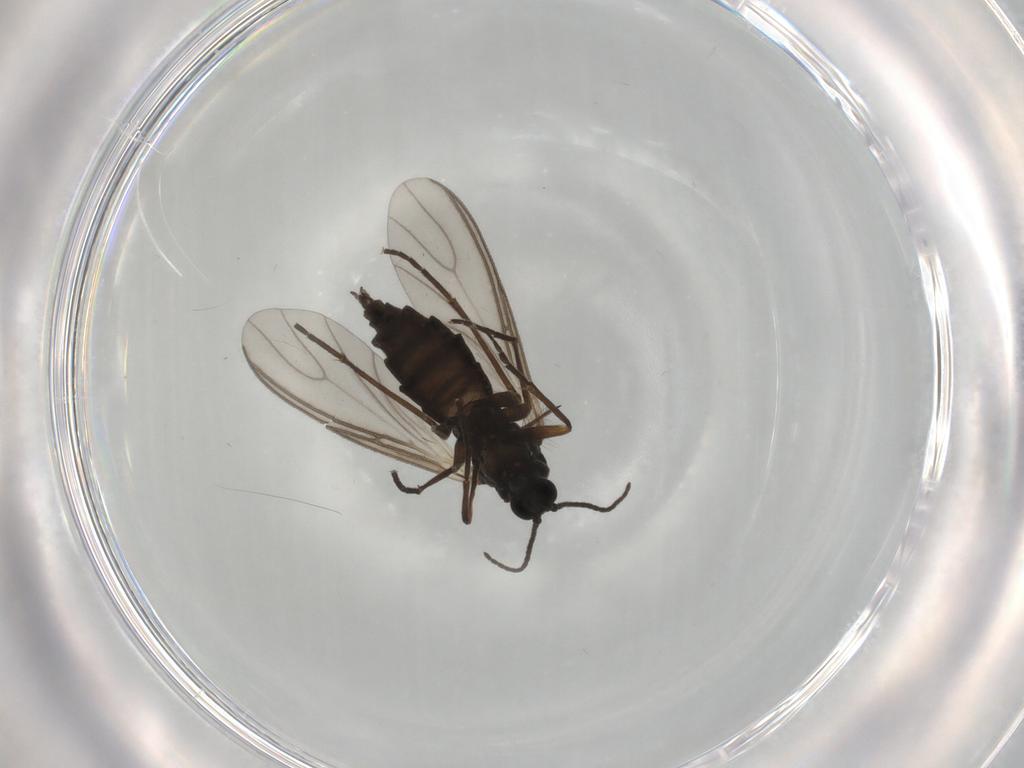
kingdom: Animalia
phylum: Arthropoda
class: Insecta
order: Diptera
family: Sciaridae
